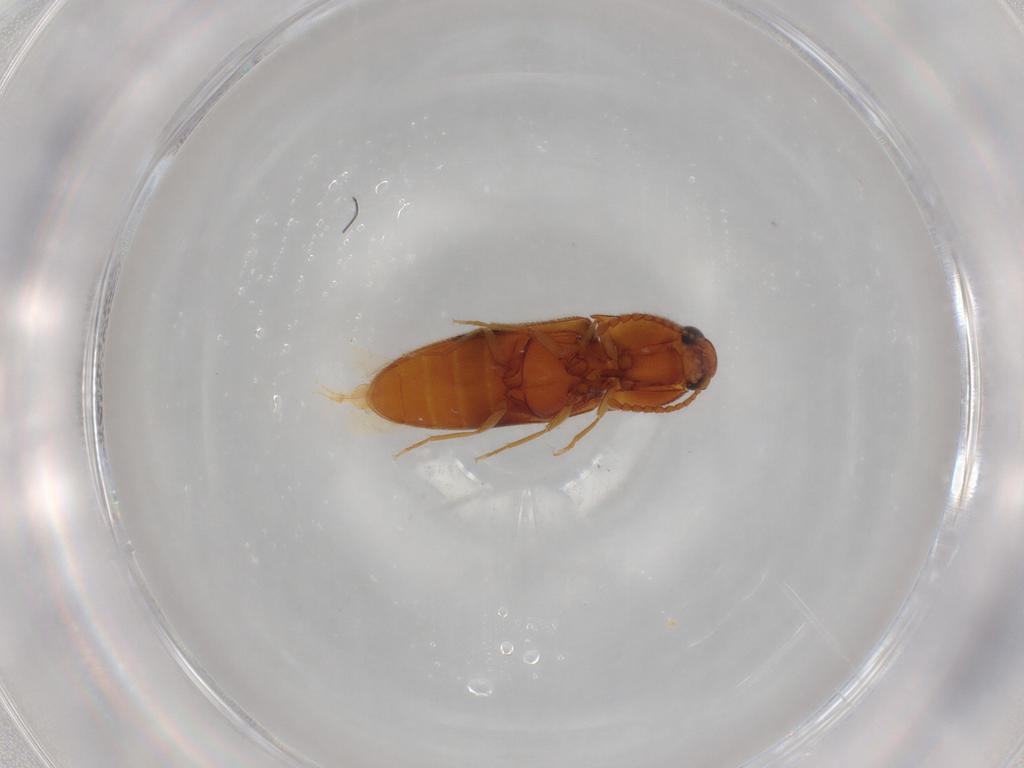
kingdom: Animalia
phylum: Arthropoda
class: Insecta
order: Coleoptera
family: Elateridae
